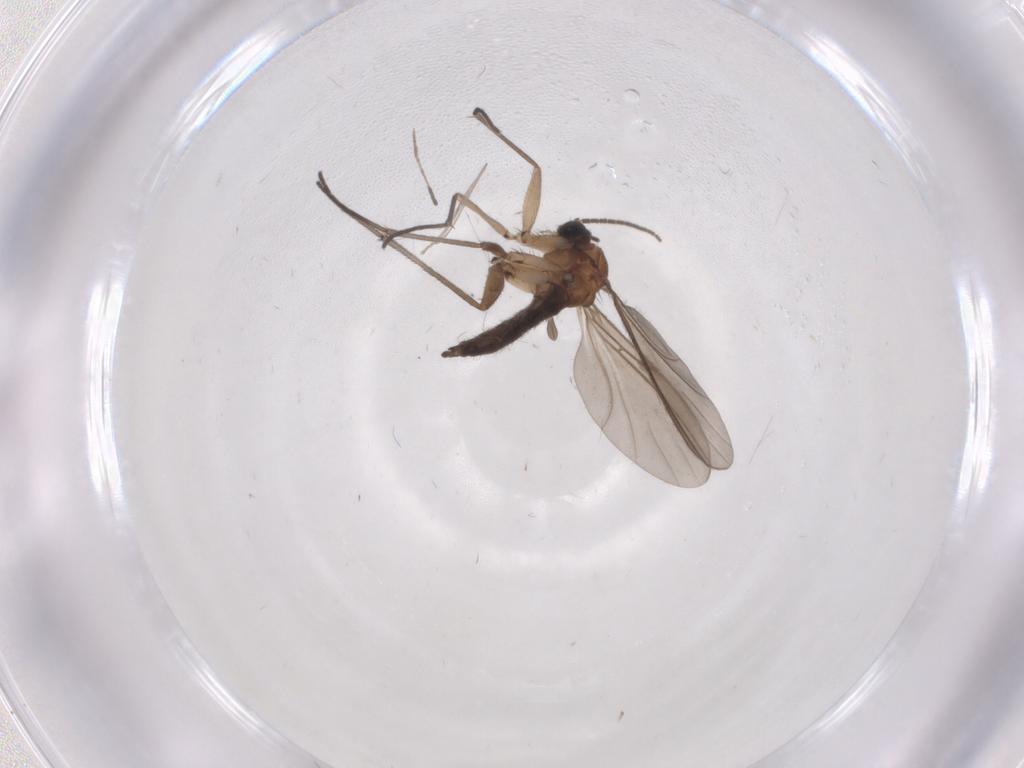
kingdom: Animalia
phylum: Arthropoda
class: Insecta
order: Diptera
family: Sciaridae
